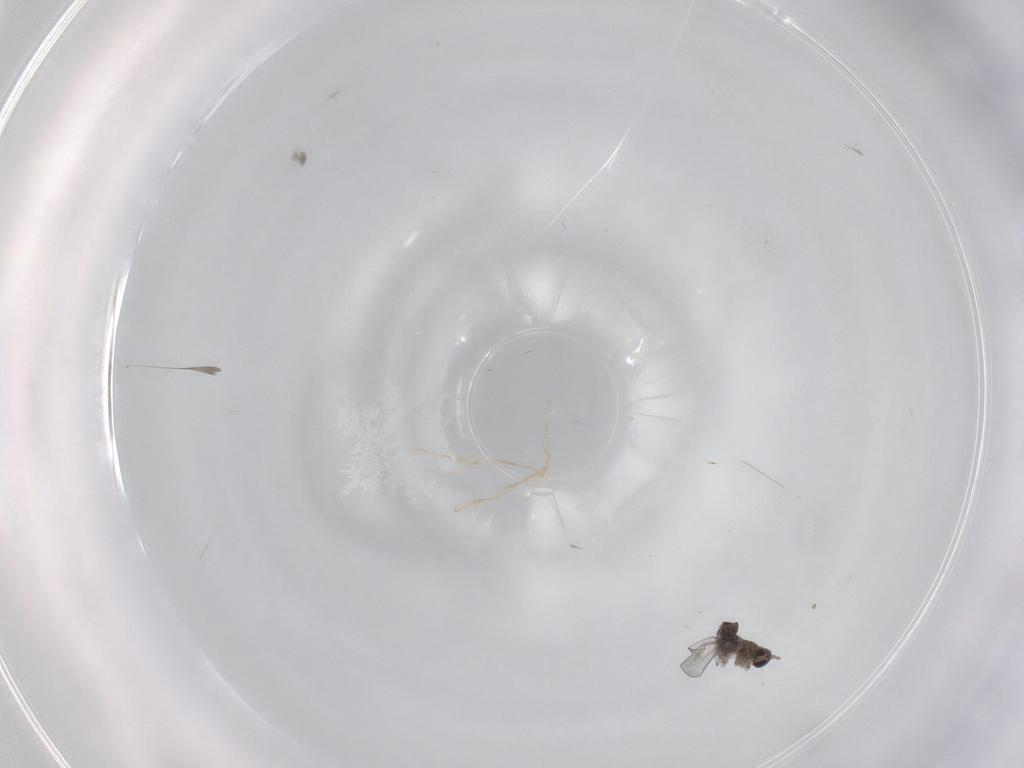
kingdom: Animalia
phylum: Arthropoda
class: Insecta
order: Diptera
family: Cecidomyiidae
